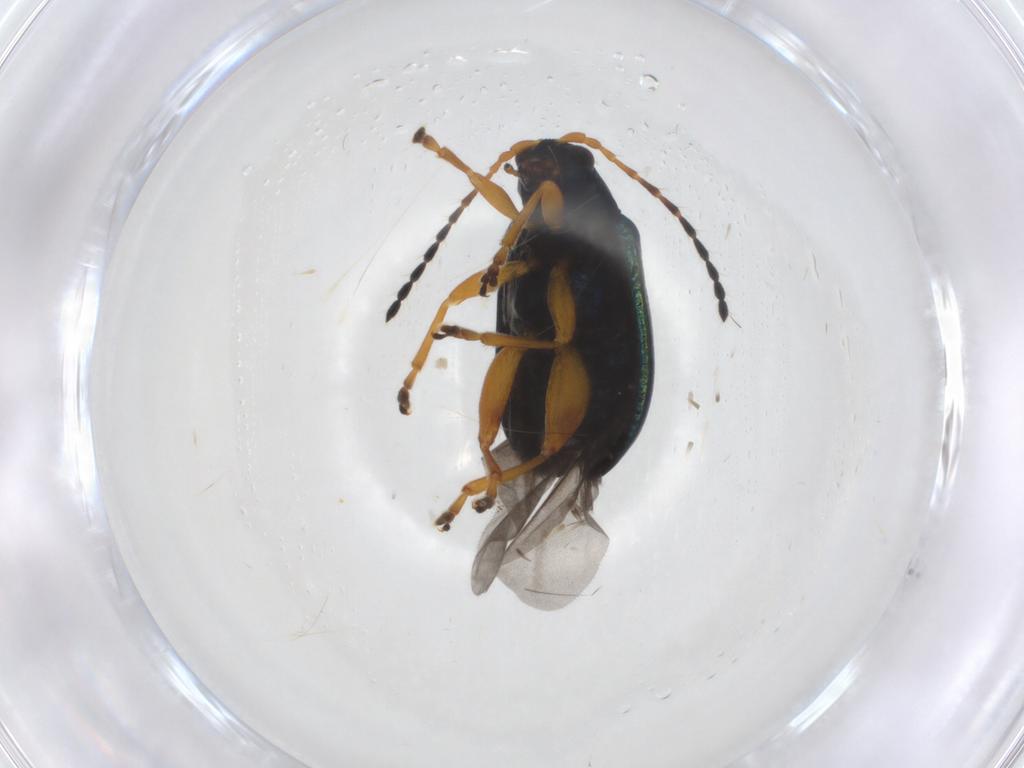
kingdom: Animalia
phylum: Arthropoda
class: Insecta
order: Coleoptera
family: Chrysomelidae
